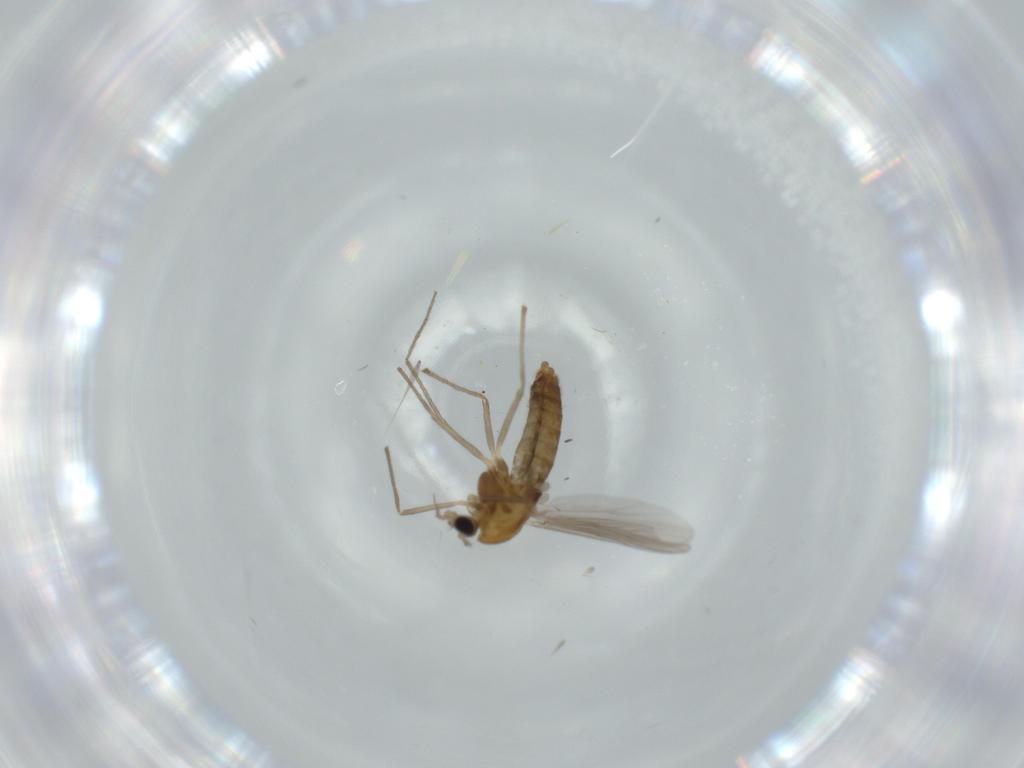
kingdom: Animalia
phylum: Arthropoda
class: Insecta
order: Diptera
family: Chironomidae
